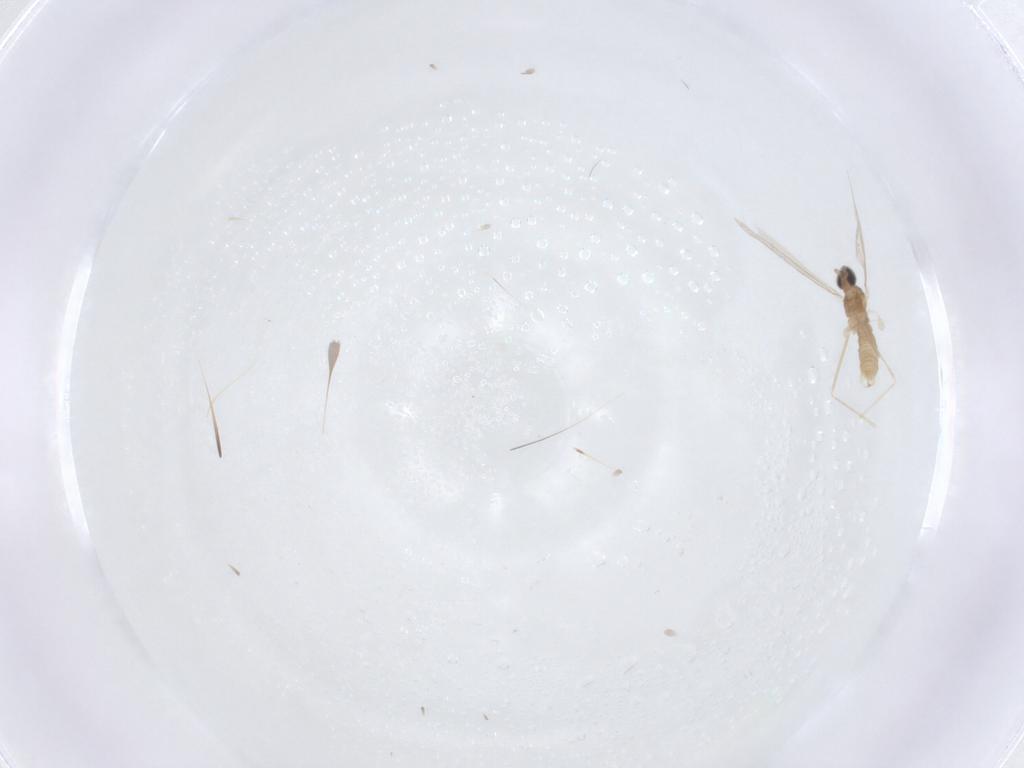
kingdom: Animalia
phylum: Arthropoda
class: Insecta
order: Diptera
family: Cecidomyiidae
